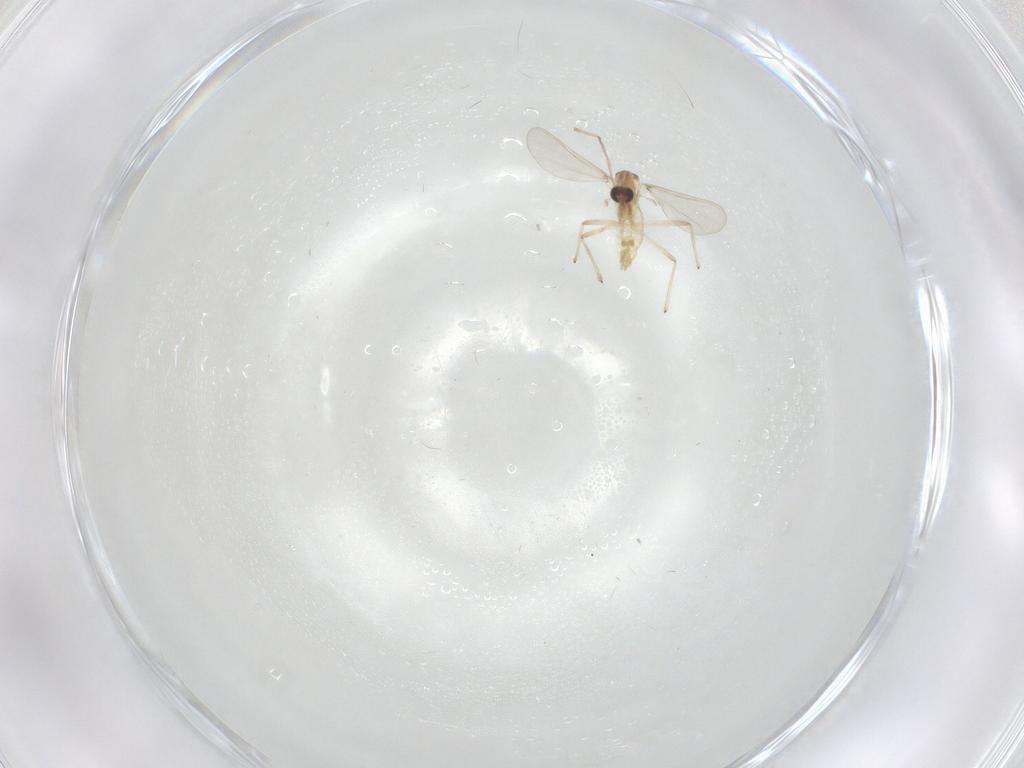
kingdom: Animalia
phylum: Arthropoda
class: Insecta
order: Diptera
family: Chironomidae
